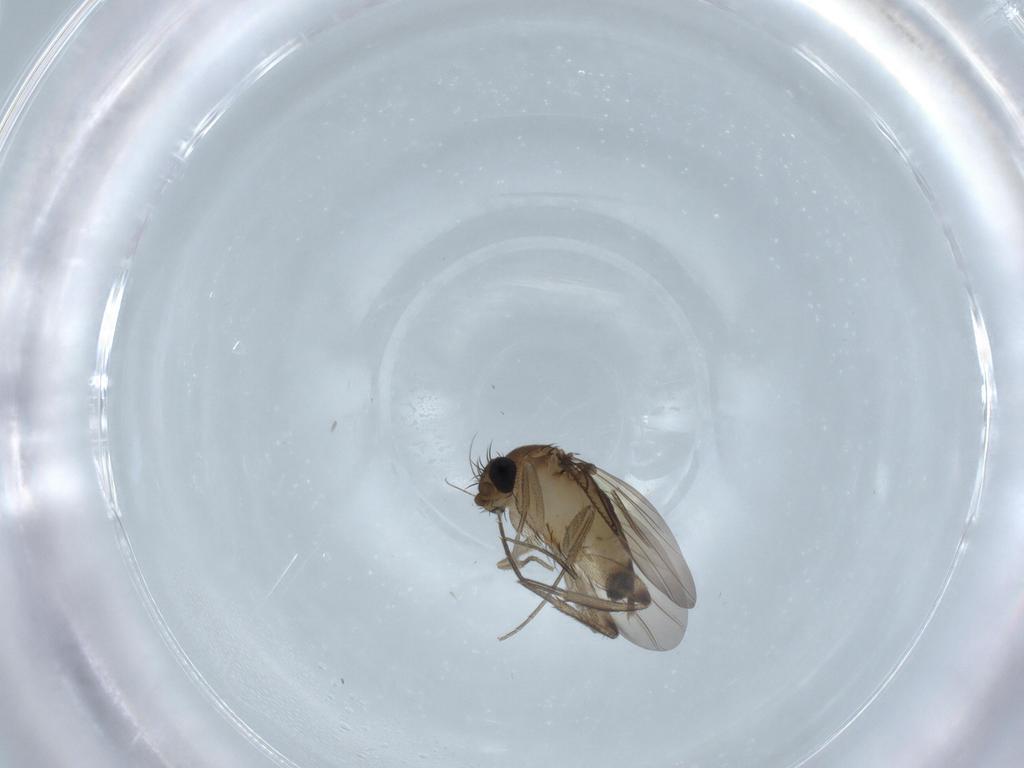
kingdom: Animalia
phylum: Arthropoda
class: Insecta
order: Diptera
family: Phoridae
